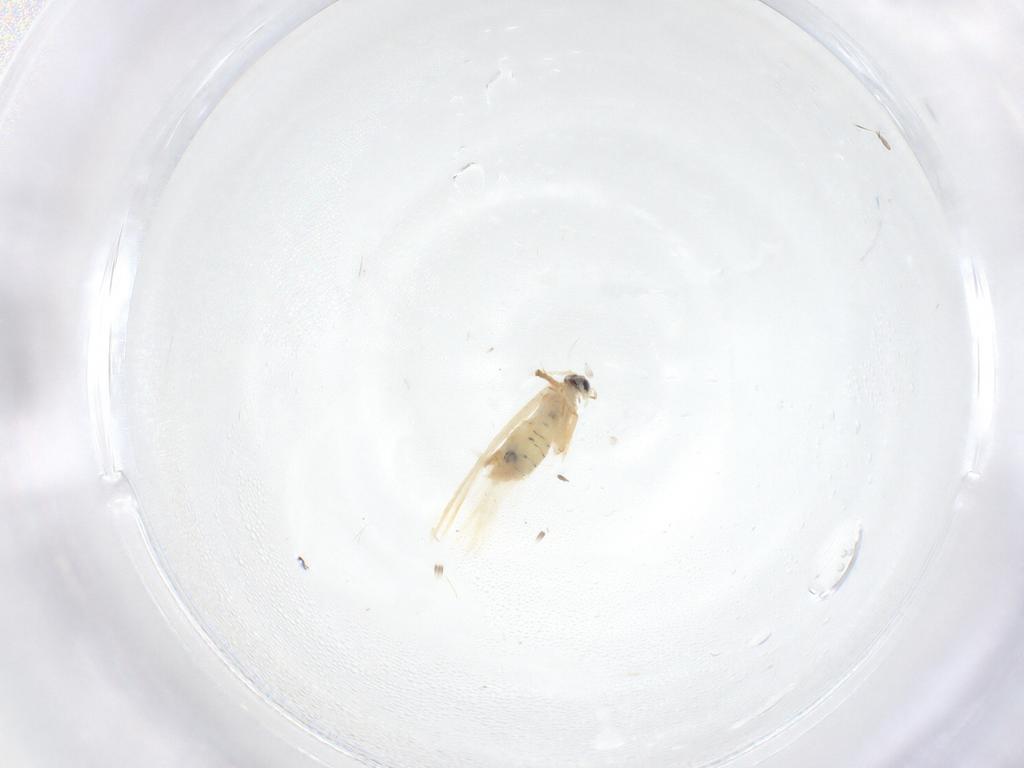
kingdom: Animalia
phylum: Arthropoda
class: Insecta
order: Lepidoptera
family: Nepticulidae
